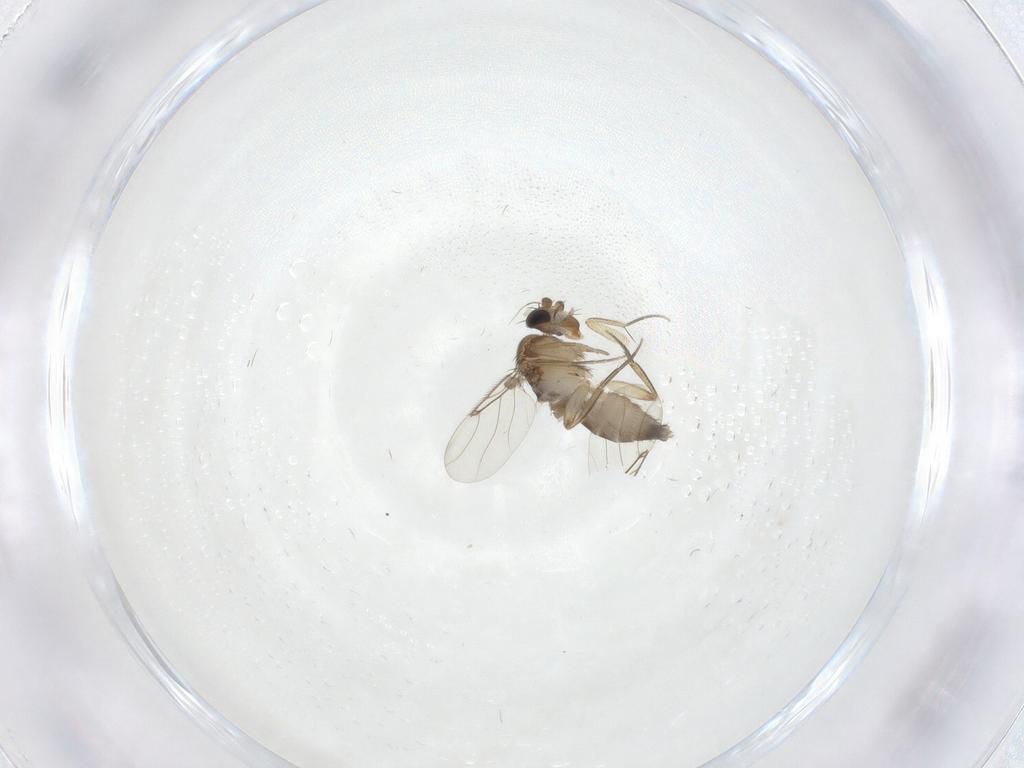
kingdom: Animalia
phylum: Arthropoda
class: Insecta
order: Diptera
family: Phoridae
